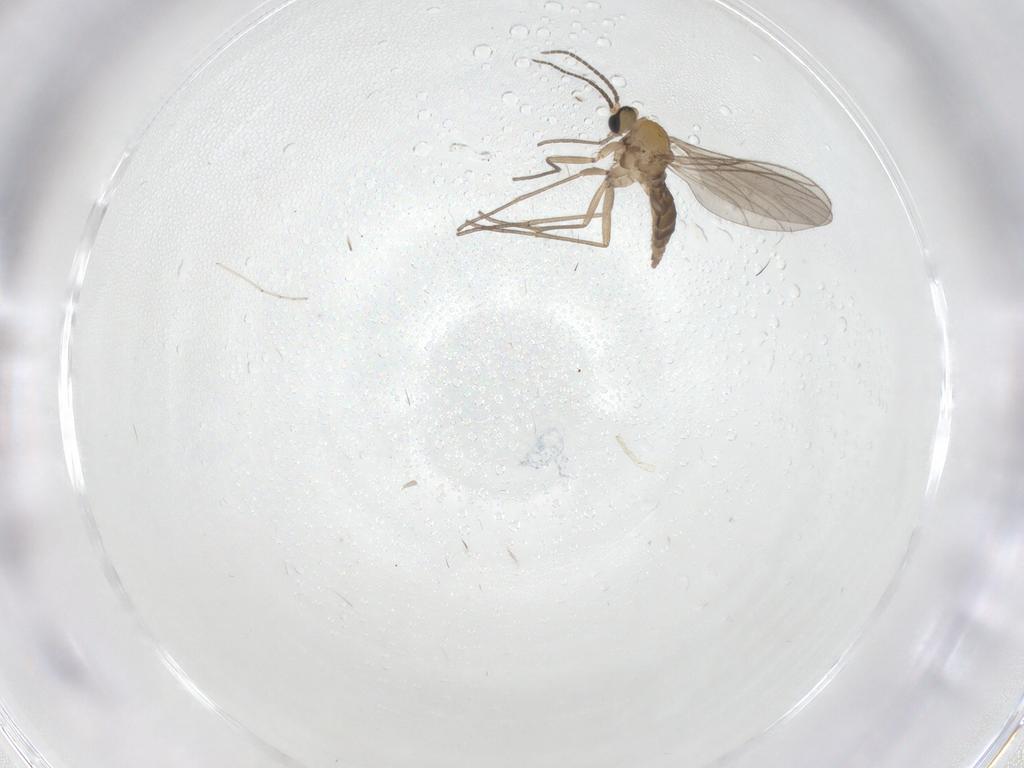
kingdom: Animalia
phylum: Arthropoda
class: Insecta
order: Diptera
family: Sciaridae
